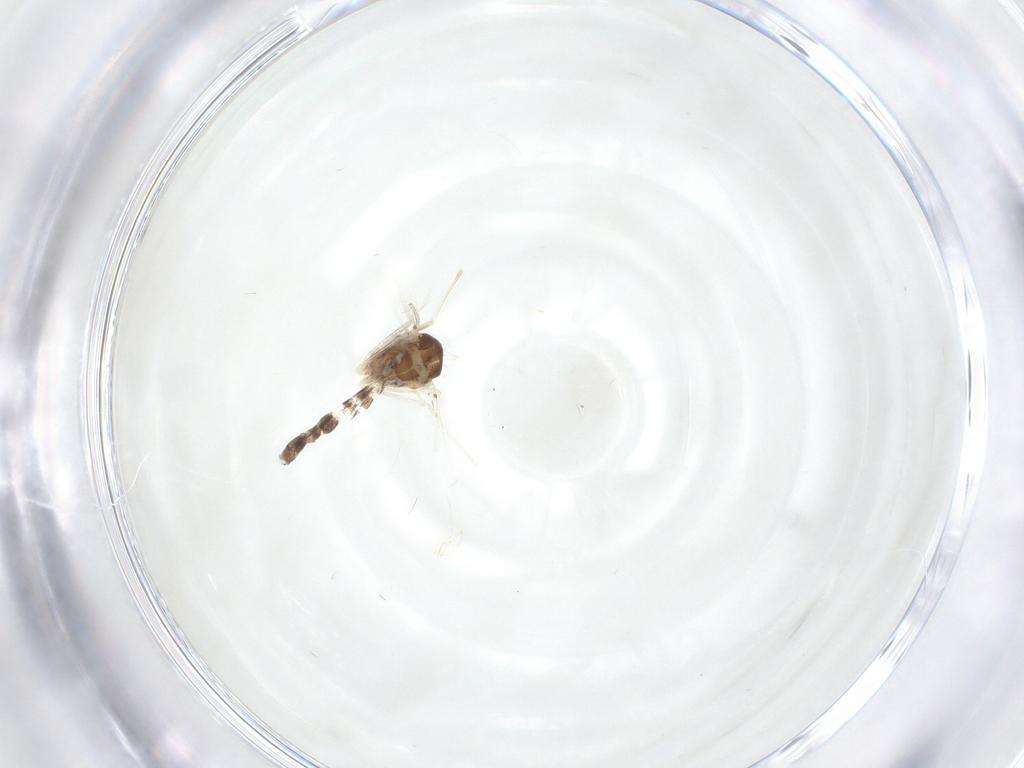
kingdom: Animalia
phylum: Arthropoda
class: Insecta
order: Diptera
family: Chironomidae
